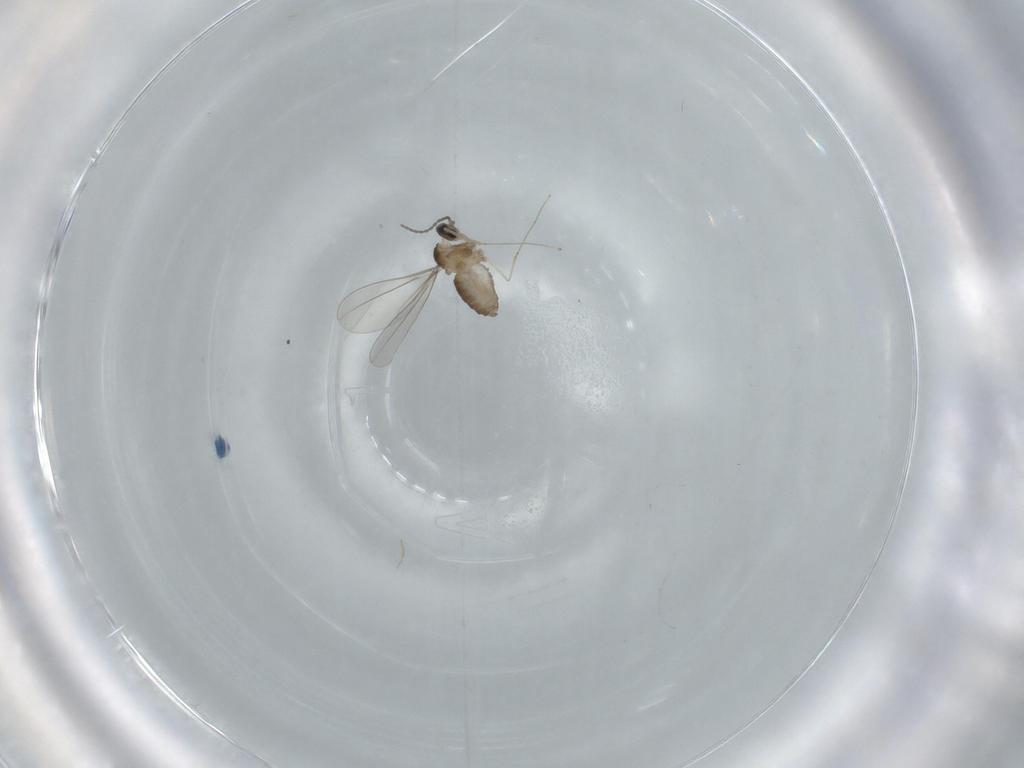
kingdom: Animalia
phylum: Arthropoda
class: Insecta
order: Diptera
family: Cecidomyiidae
